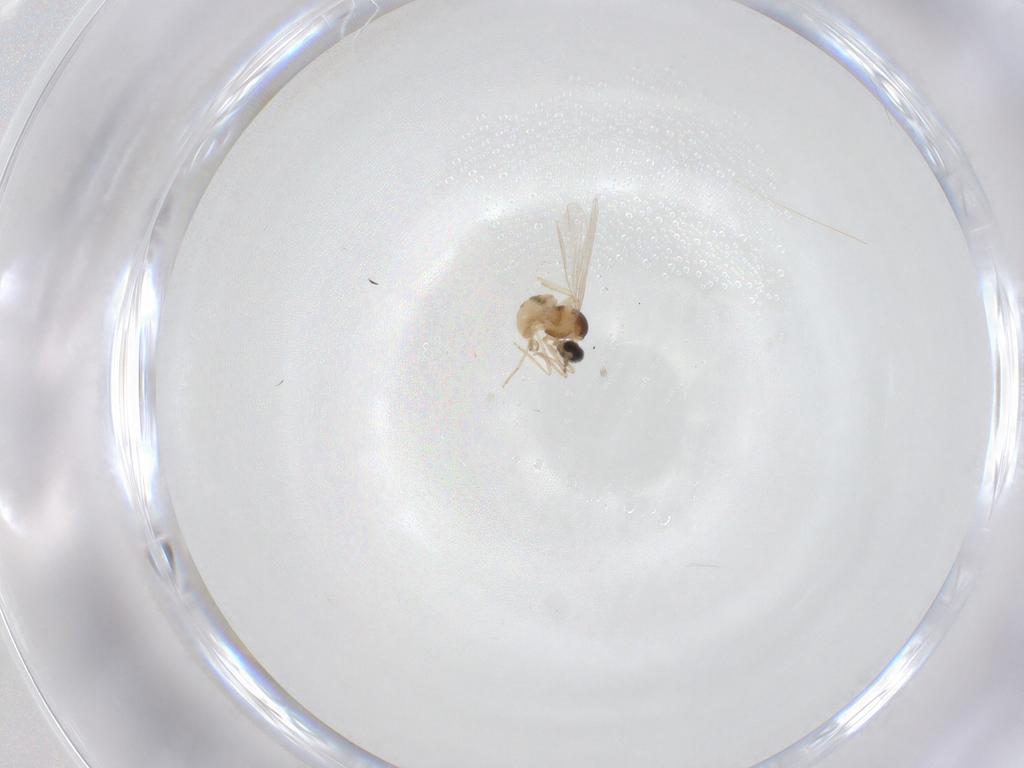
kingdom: Animalia
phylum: Arthropoda
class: Insecta
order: Diptera
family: Cecidomyiidae
